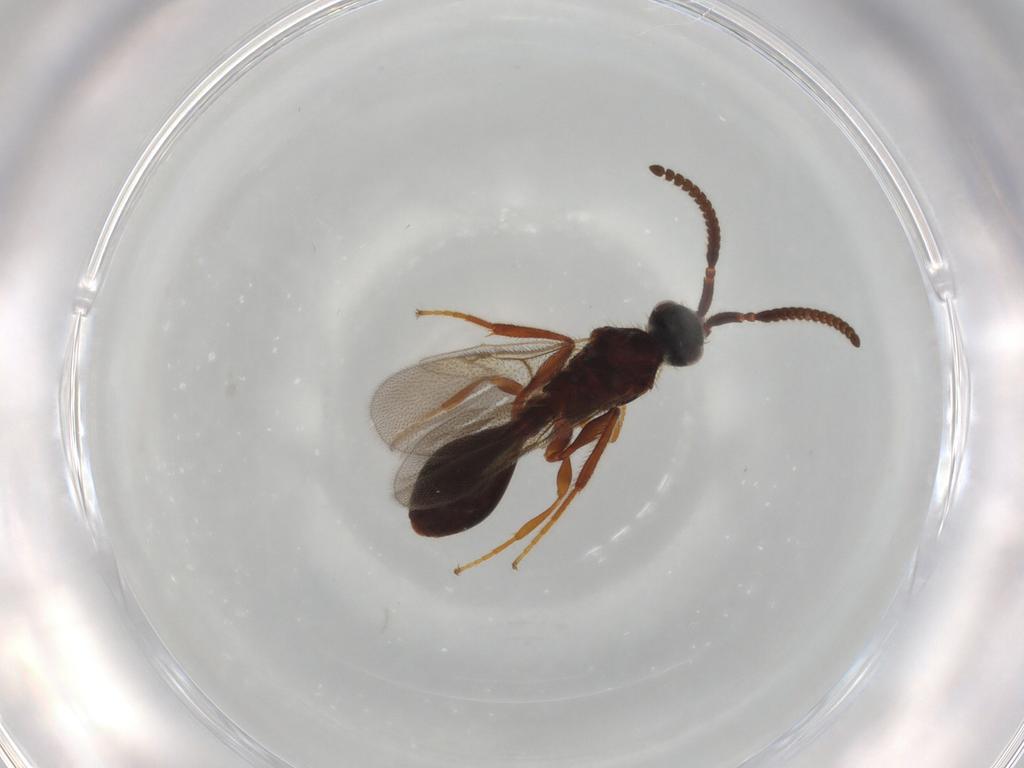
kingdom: Animalia
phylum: Arthropoda
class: Insecta
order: Hymenoptera
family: Diapriidae
